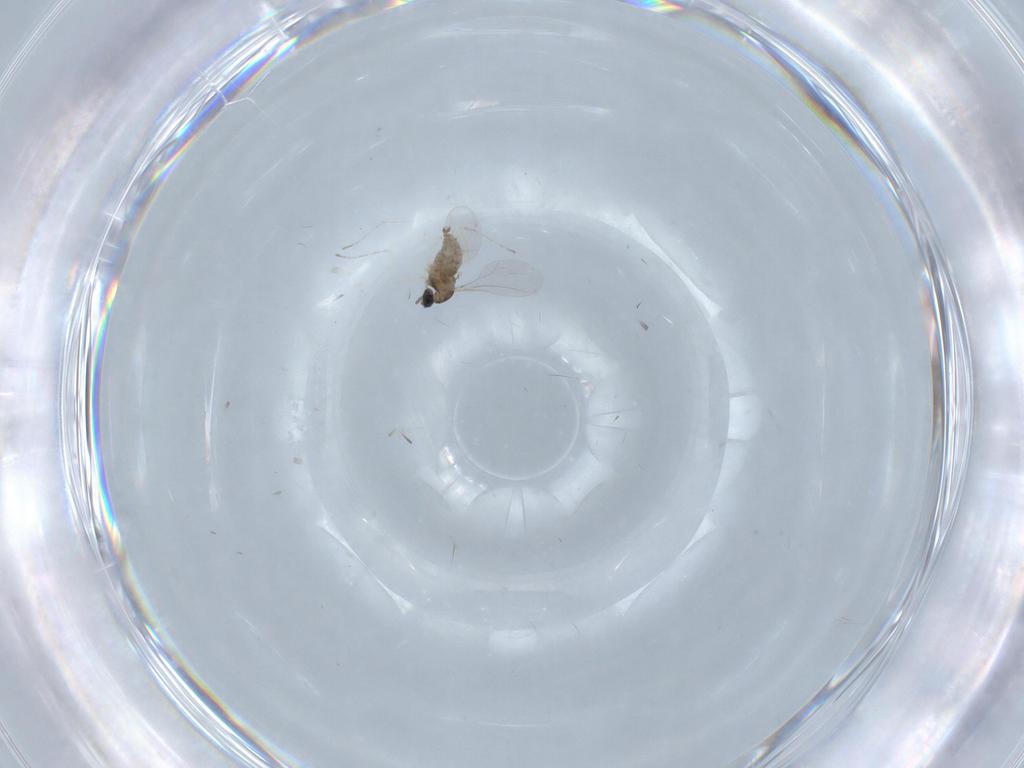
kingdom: Animalia
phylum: Arthropoda
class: Insecta
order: Diptera
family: Cecidomyiidae
